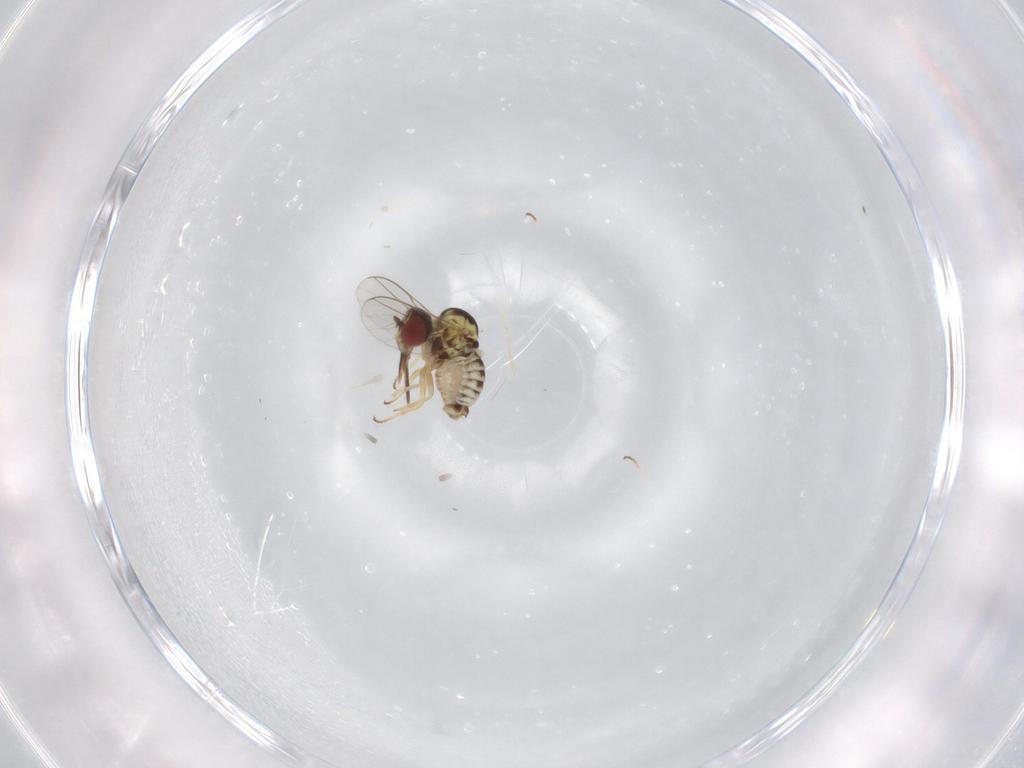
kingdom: Animalia
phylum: Arthropoda
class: Insecta
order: Diptera
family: Chloropidae
